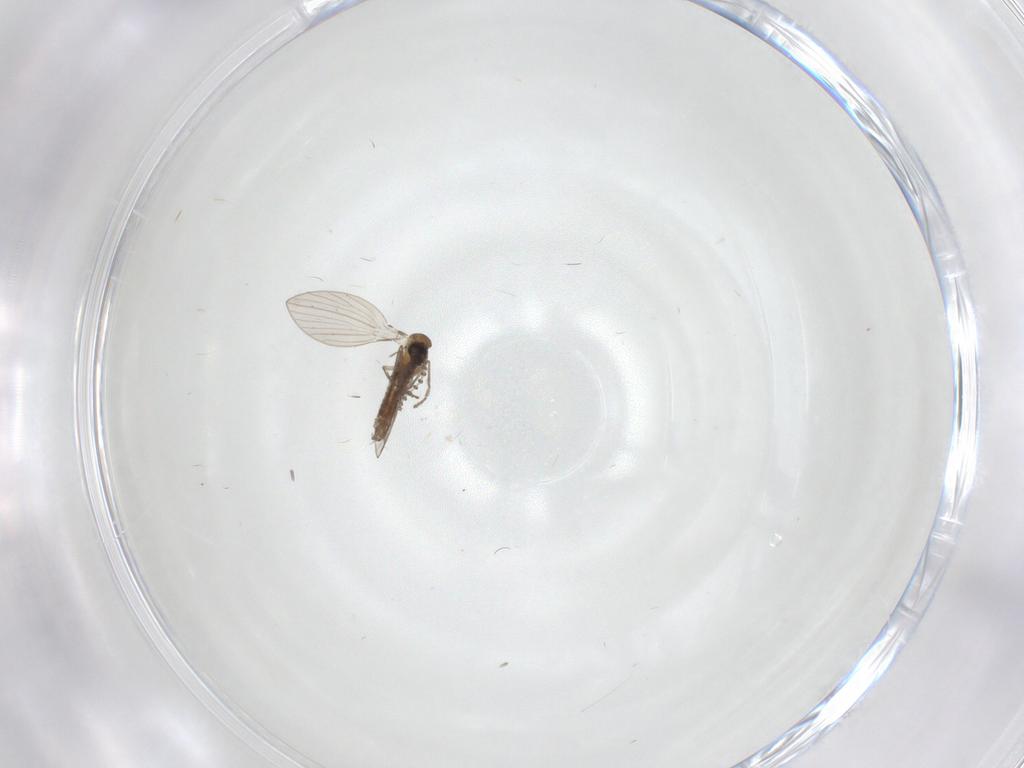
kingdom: Animalia
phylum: Arthropoda
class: Insecta
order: Diptera
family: Psychodidae
